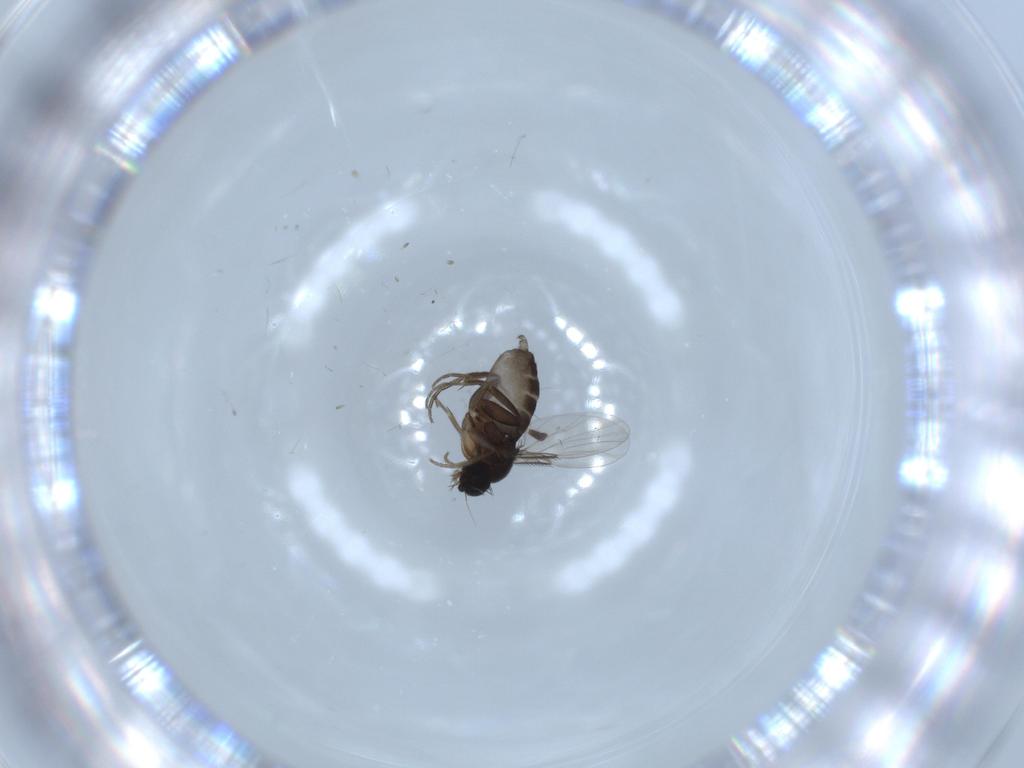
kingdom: Animalia
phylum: Arthropoda
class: Insecta
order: Diptera
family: Phoridae
